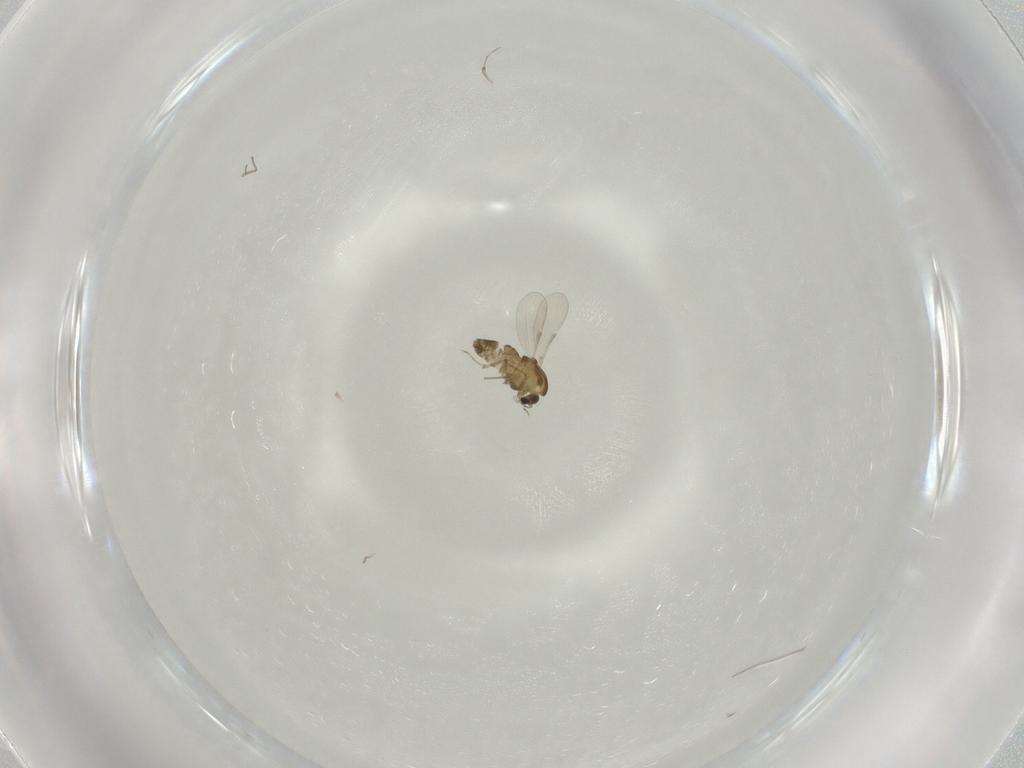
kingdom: Animalia
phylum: Arthropoda
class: Insecta
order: Diptera
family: Chironomidae
